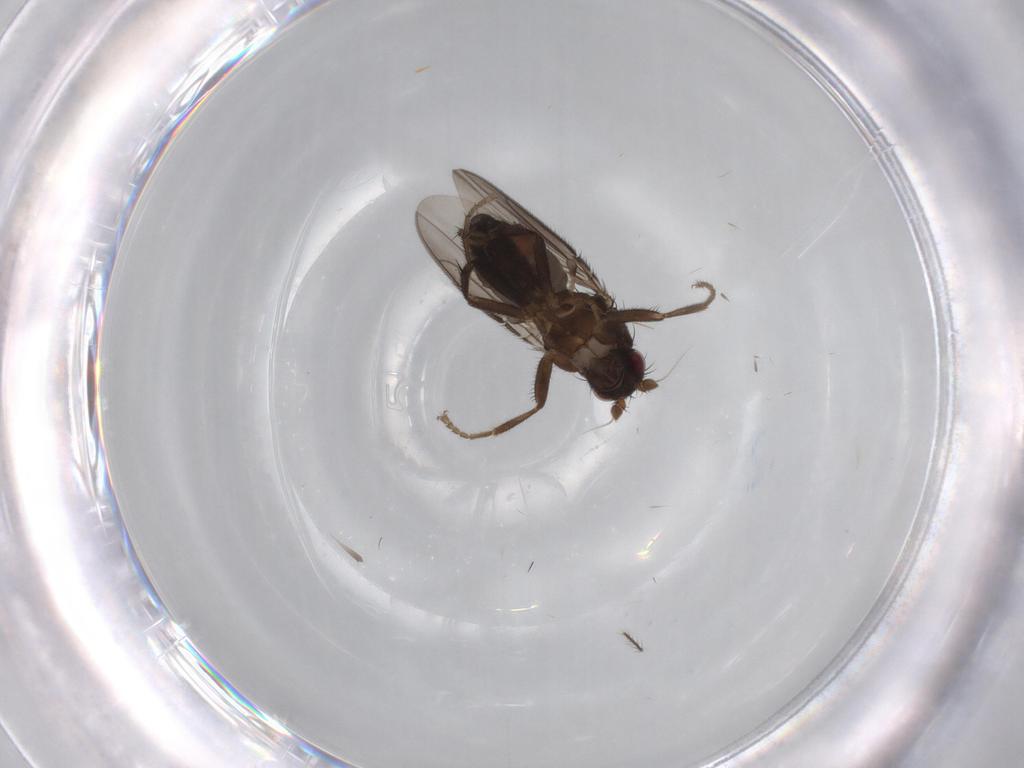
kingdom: Animalia
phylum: Arthropoda
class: Insecta
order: Diptera
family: Sphaeroceridae
